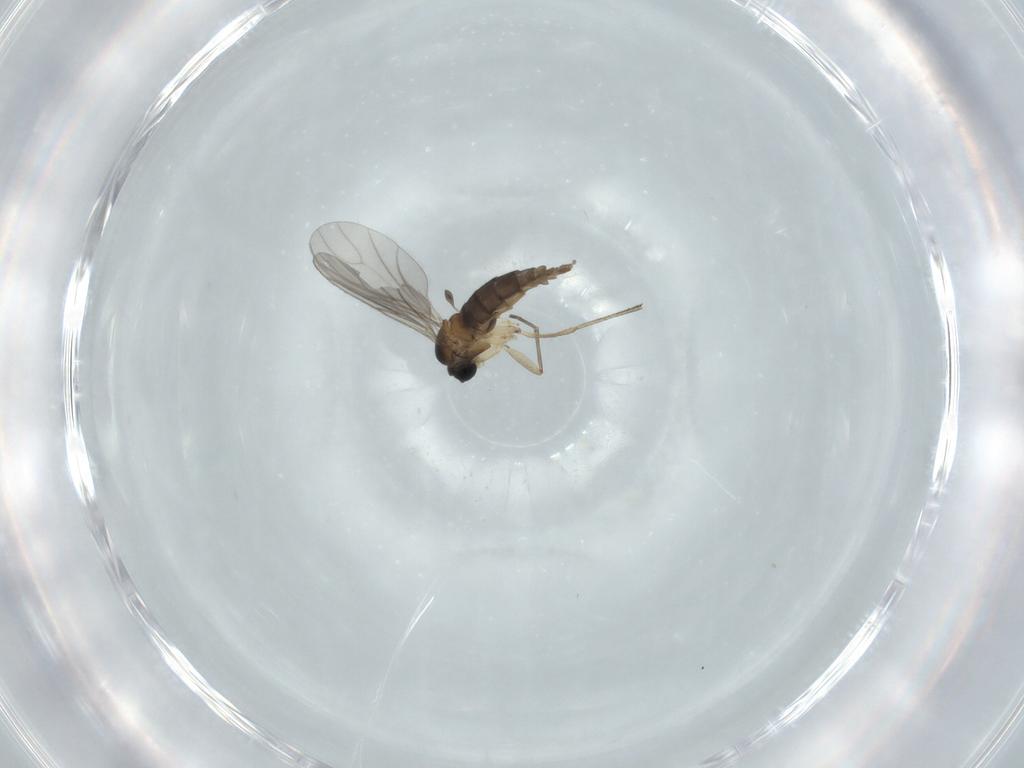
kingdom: Animalia
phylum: Arthropoda
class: Insecta
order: Diptera
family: Sciaridae
